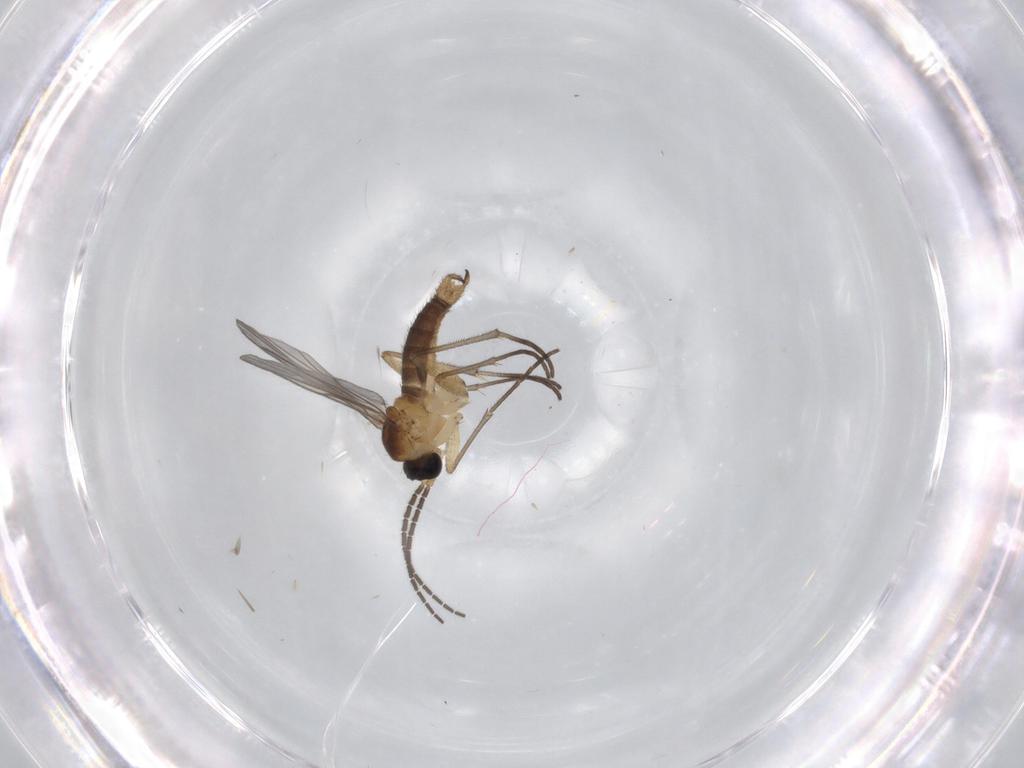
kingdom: Animalia
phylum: Arthropoda
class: Insecta
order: Diptera
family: Sciaridae
